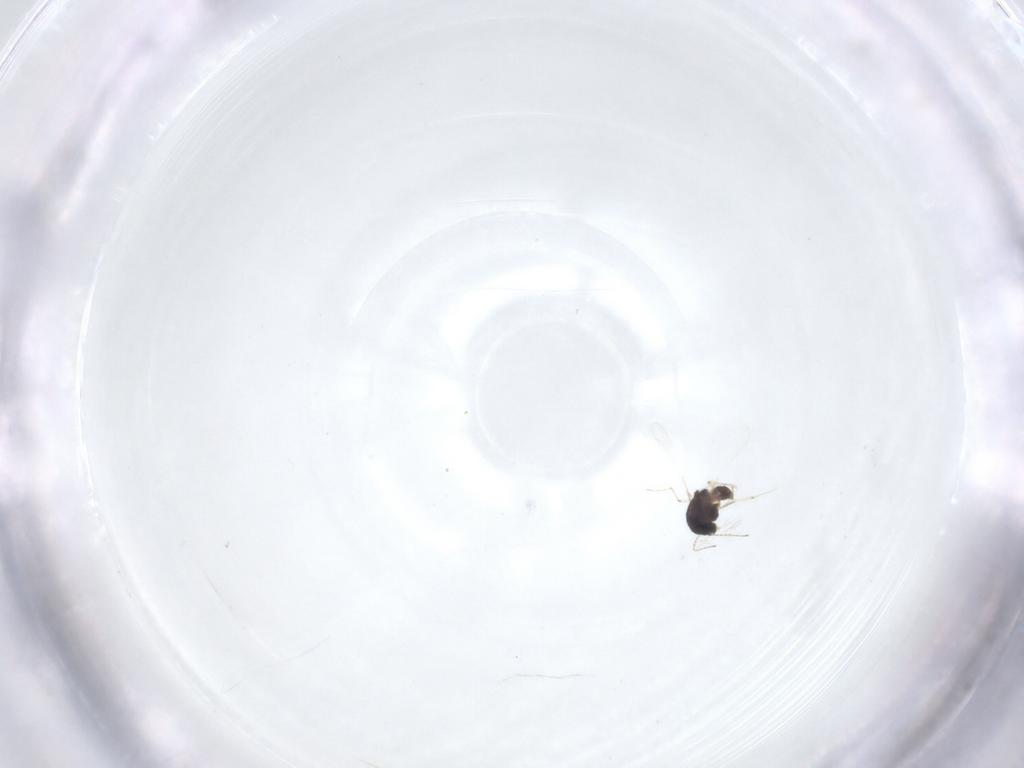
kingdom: Animalia
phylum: Arthropoda
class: Insecta
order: Diptera
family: Chironomidae
